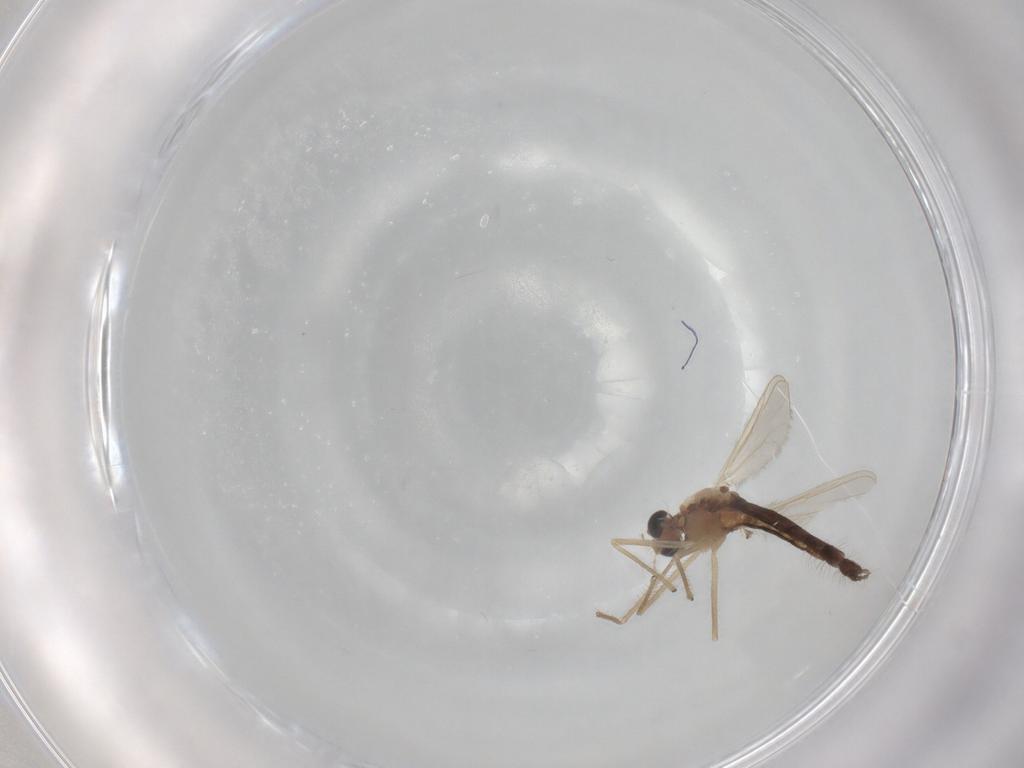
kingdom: Animalia
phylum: Arthropoda
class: Insecta
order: Diptera
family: Chironomidae
